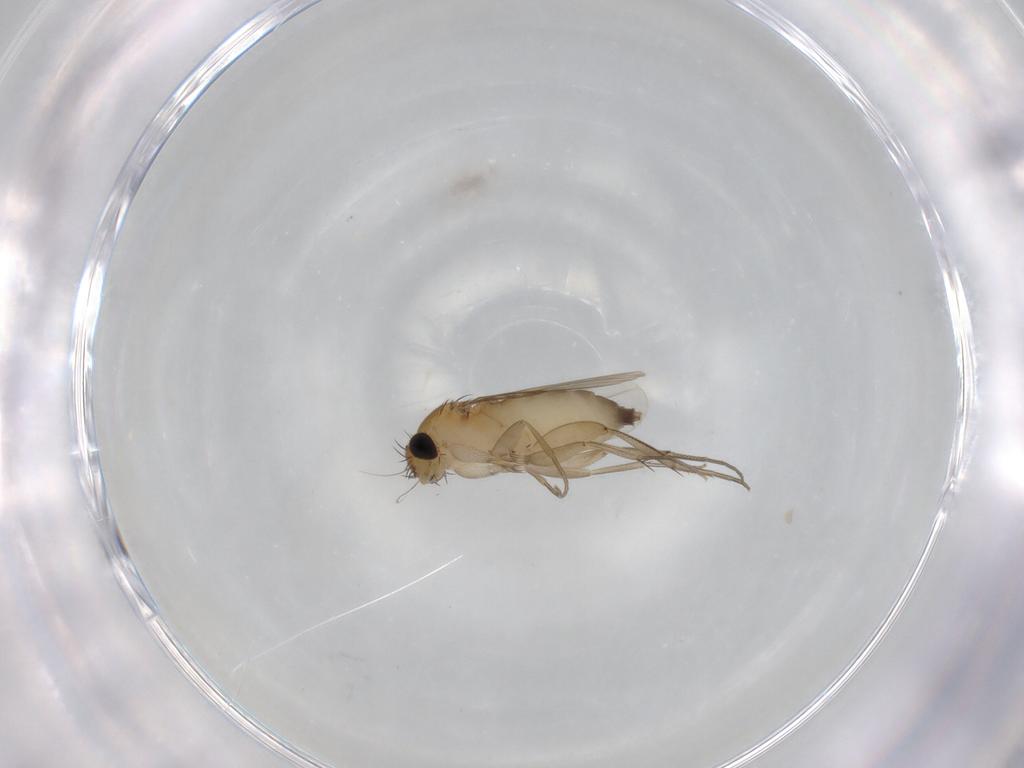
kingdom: Animalia
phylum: Arthropoda
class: Insecta
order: Diptera
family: Phoridae
